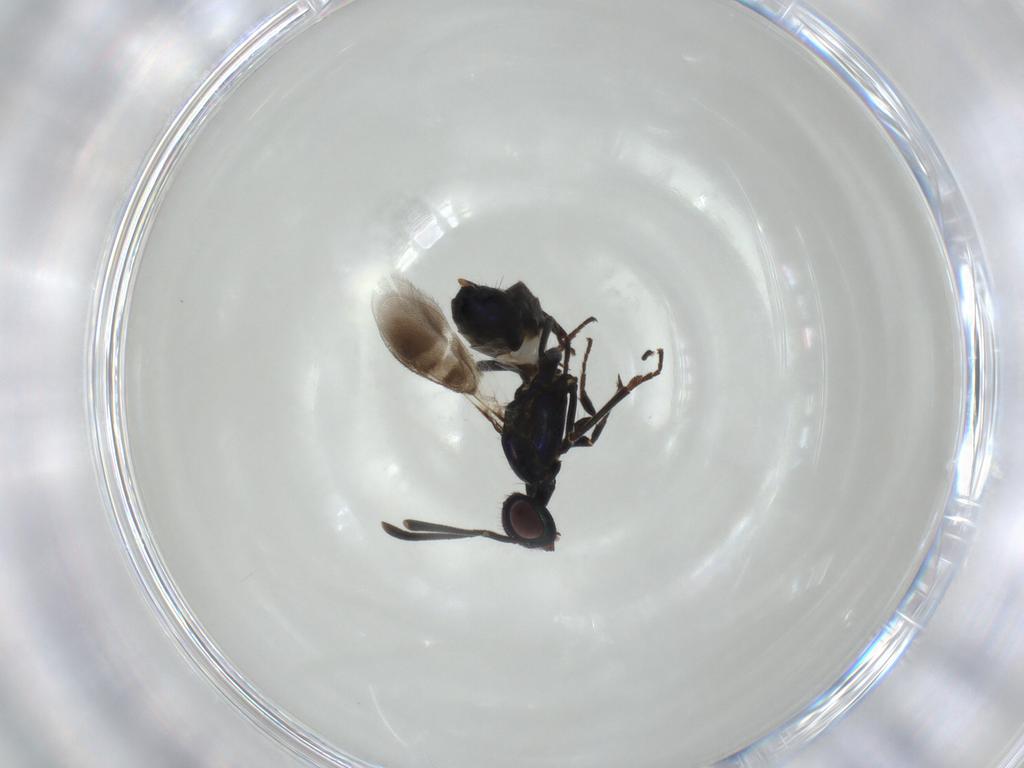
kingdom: Animalia
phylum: Arthropoda
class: Insecta
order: Hymenoptera
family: Eupelmidae
